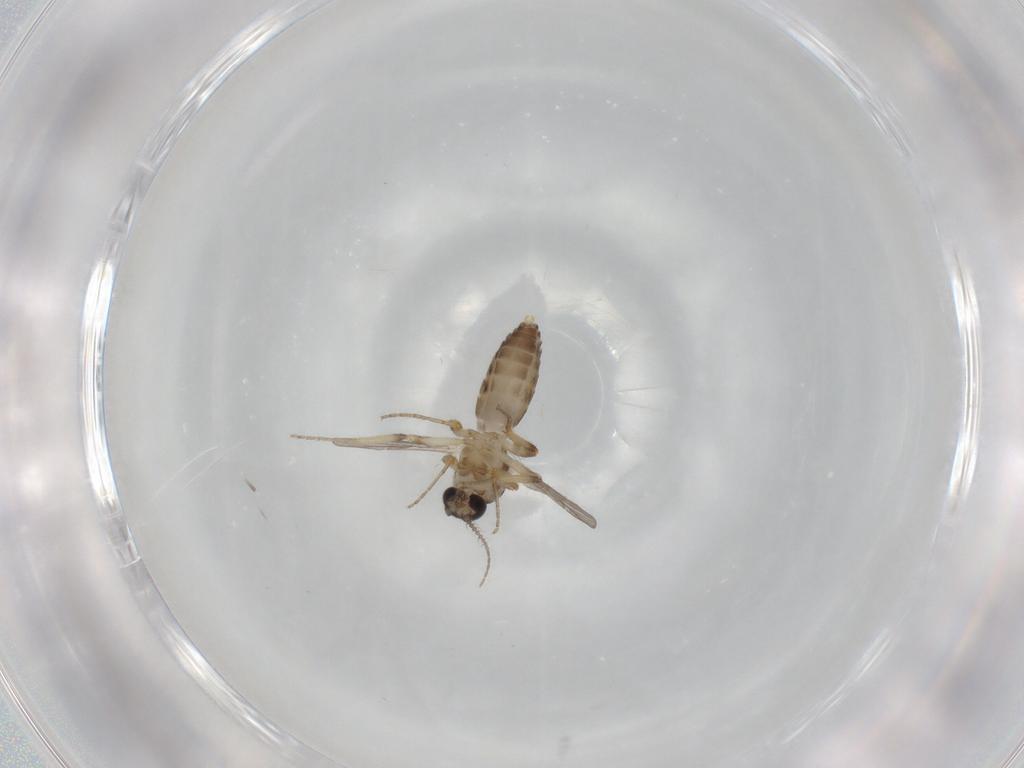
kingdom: Animalia
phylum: Arthropoda
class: Insecta
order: Diptera
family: Ceratopogonidae
